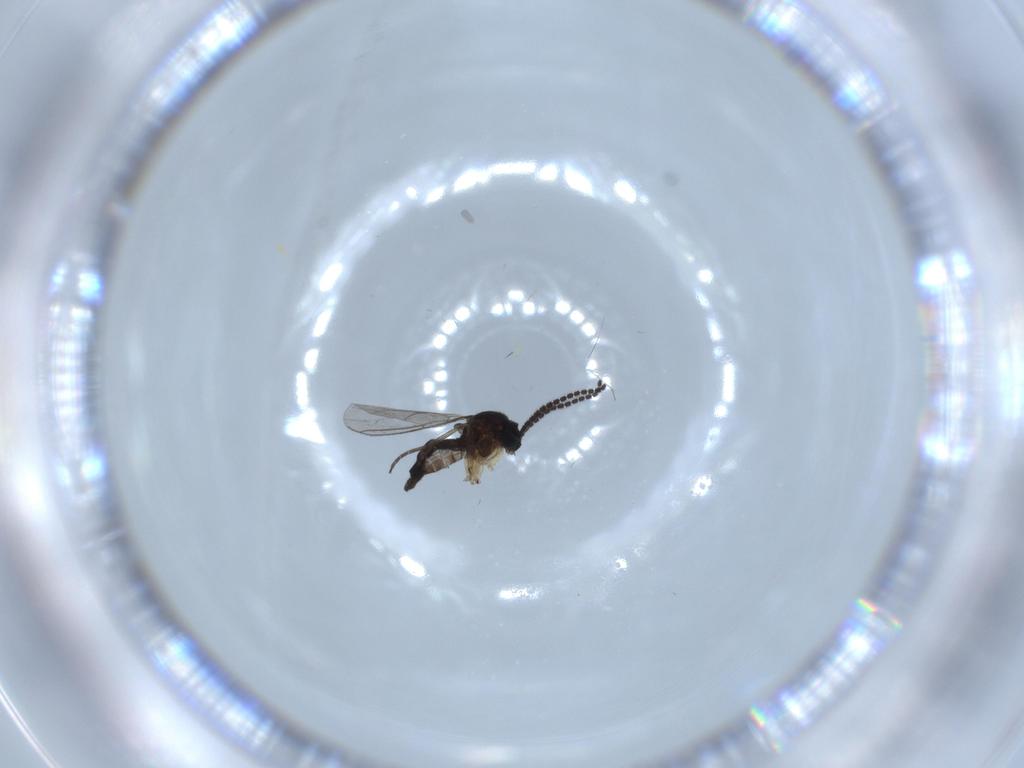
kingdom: Animalia
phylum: Arthropoda
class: Insecta
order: Diptera
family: Sciaridae
